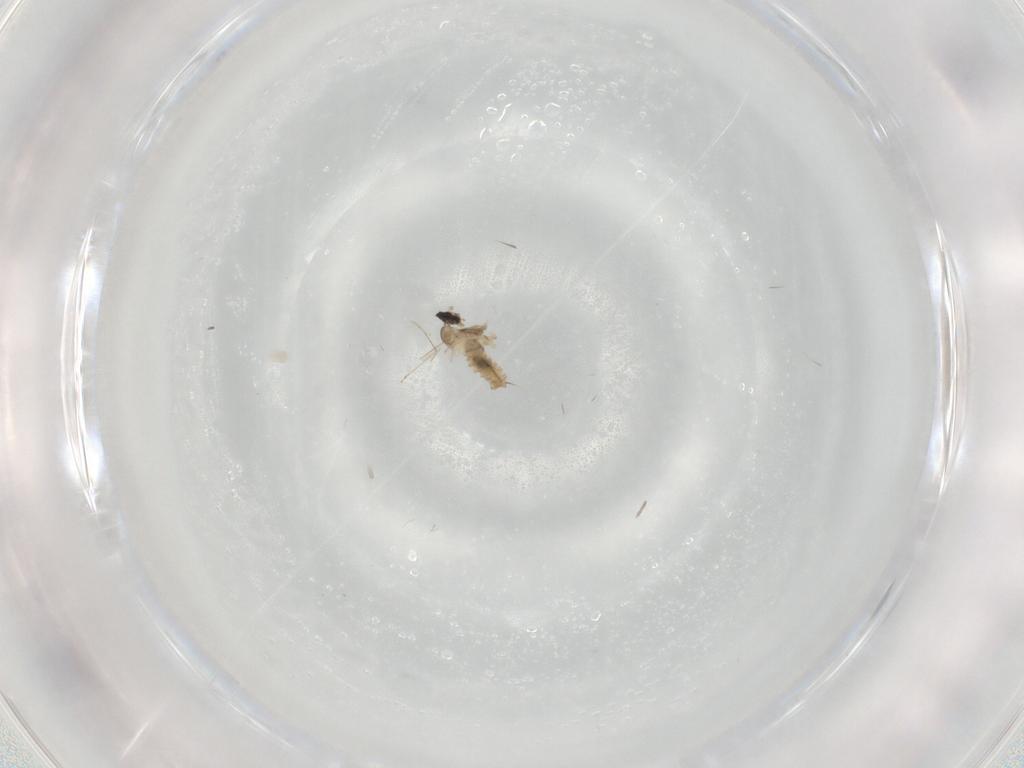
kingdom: Animalia
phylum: Arthropoda
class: Insecta
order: Diptera
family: Cecidomyiidae
